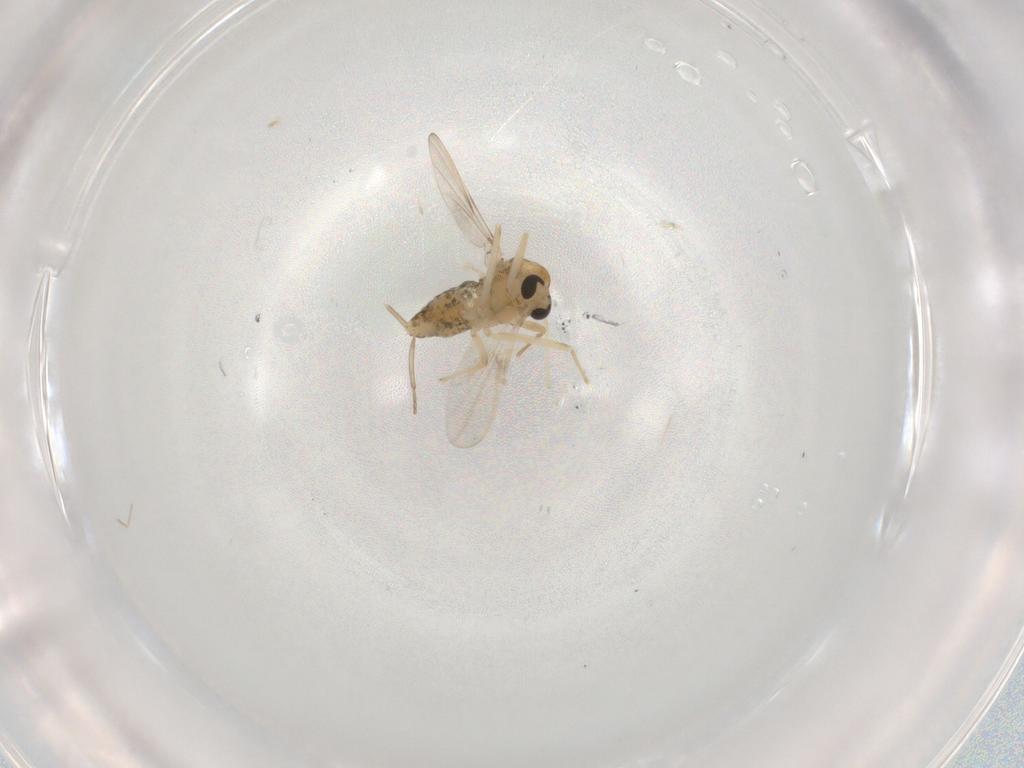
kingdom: Animalia
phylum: Arthropoda
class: Insecta
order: Diptera
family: Chironomidae
